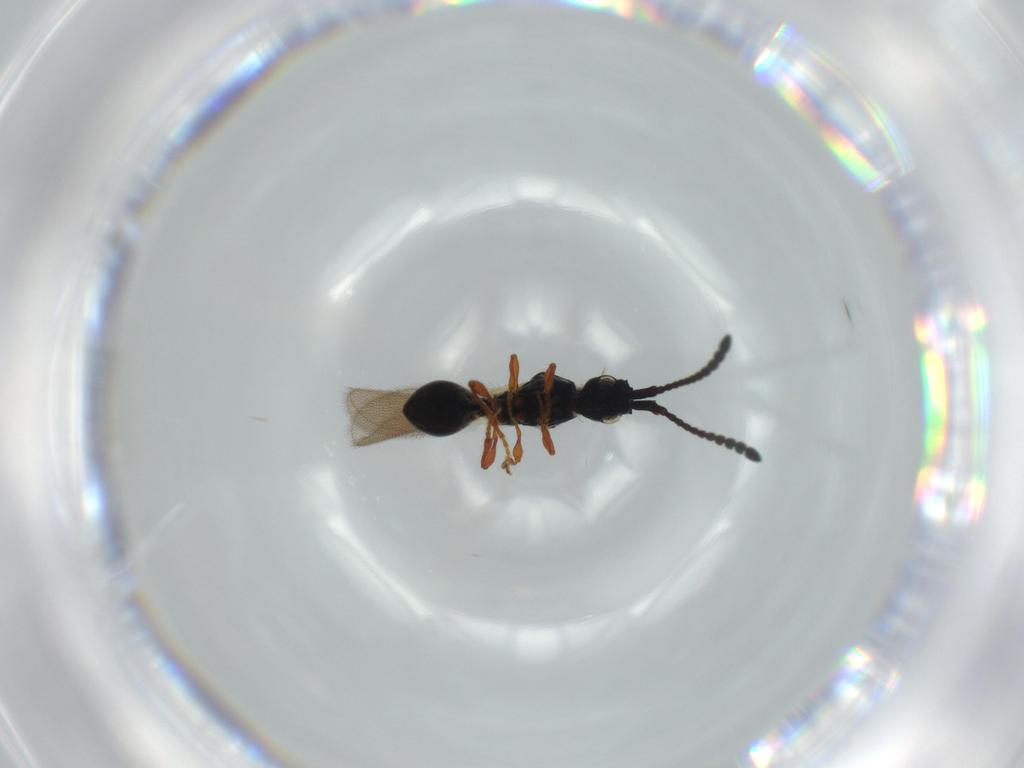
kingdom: Animalia
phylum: Arthropoda
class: Insecta
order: Hymenoptera
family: Diapriidae
